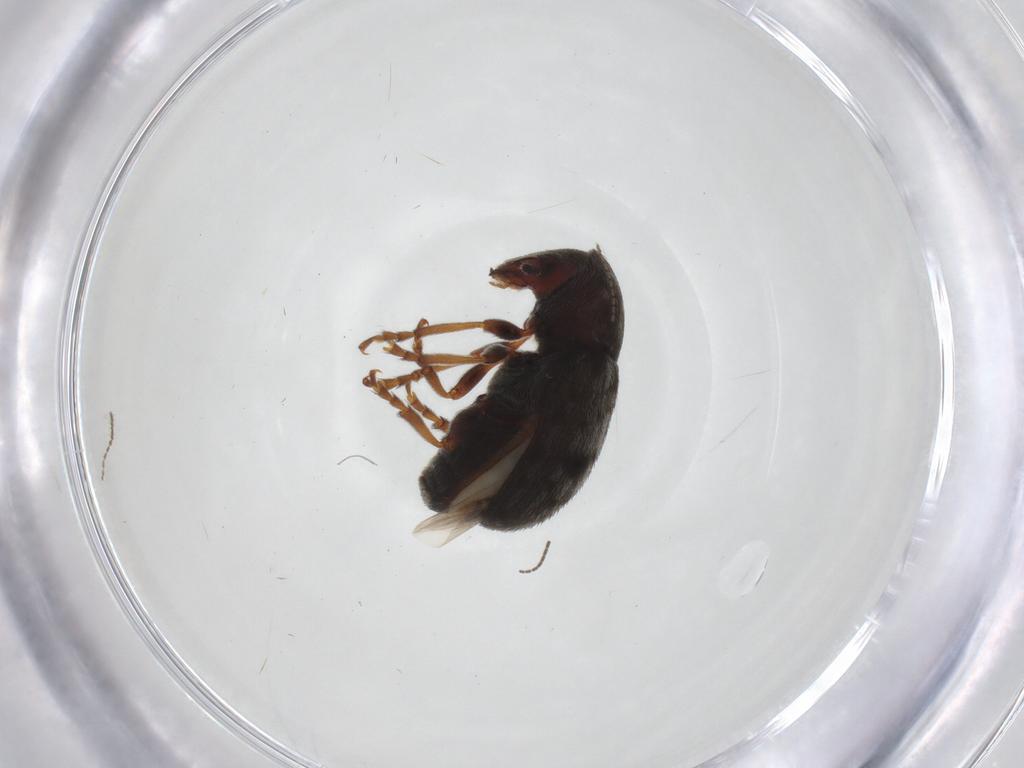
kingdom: Animalia
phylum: Arthropoda
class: Insecta
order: Coleoptera
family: Anthribidae
